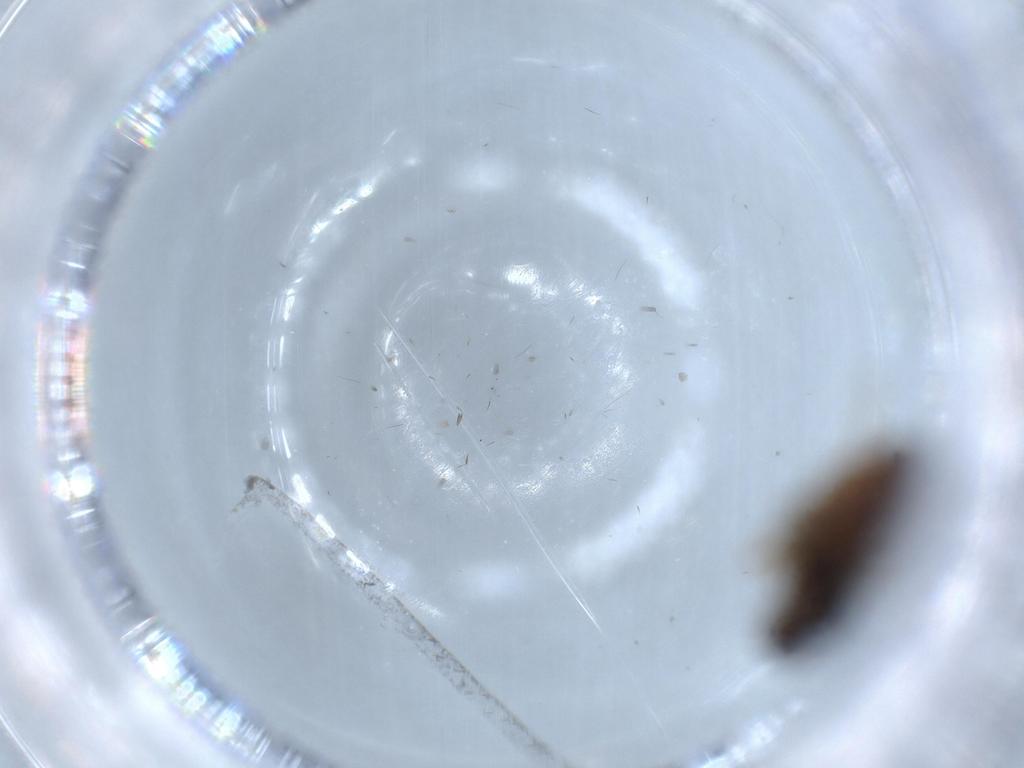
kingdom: Animalia
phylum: Arthropoda
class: Insecta
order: Diptera
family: Chloropidae
